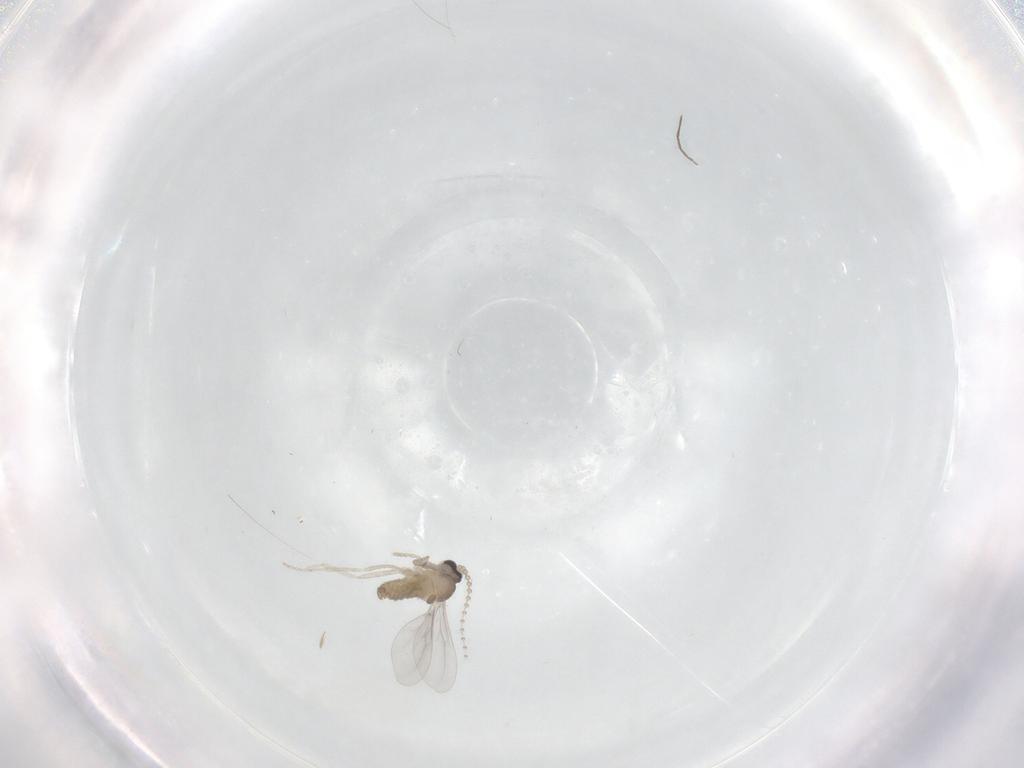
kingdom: Animalia
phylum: Arthropoda
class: Insecta
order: Diptera
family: Cecidomyiidae
